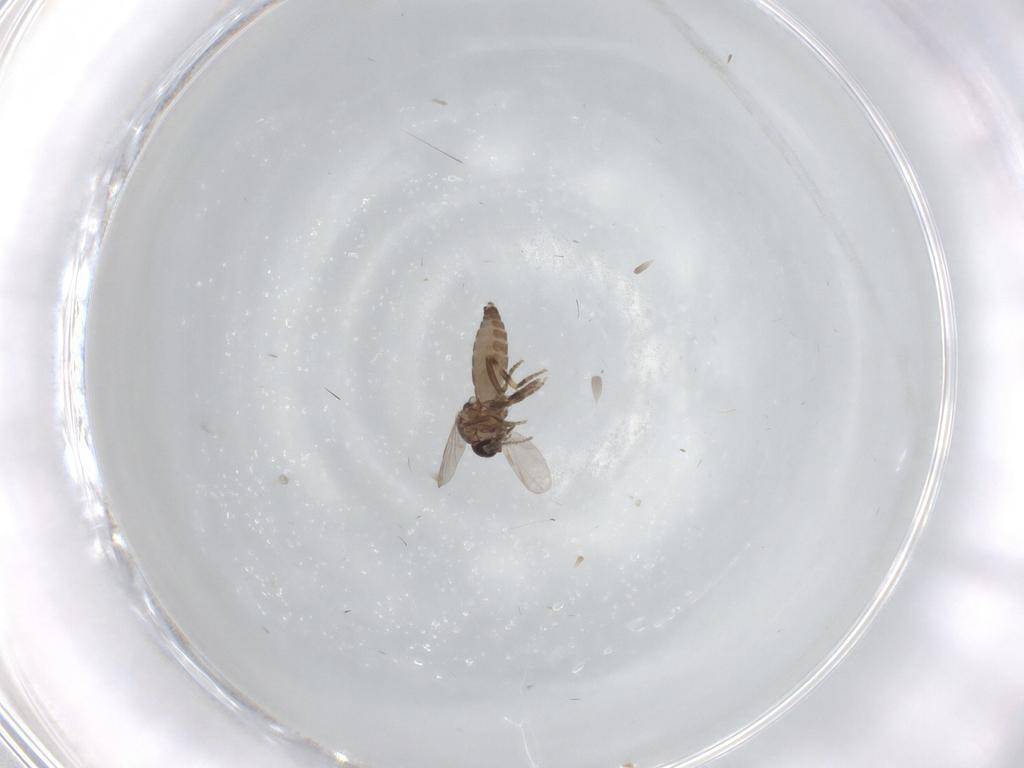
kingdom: Animalia
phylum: Arthropoda
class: Insecta
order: Diptera
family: Ceratopogonidae
